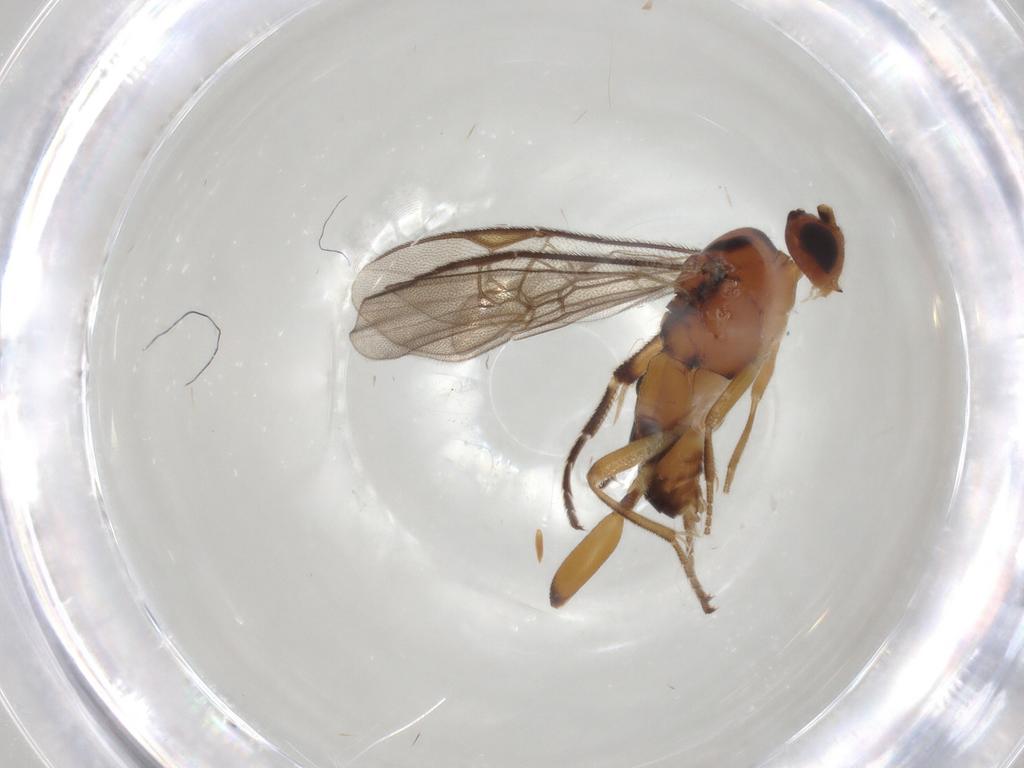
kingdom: Animalia
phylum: Arthropoda
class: Insecta
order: Hymenoptera
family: Braconidae
